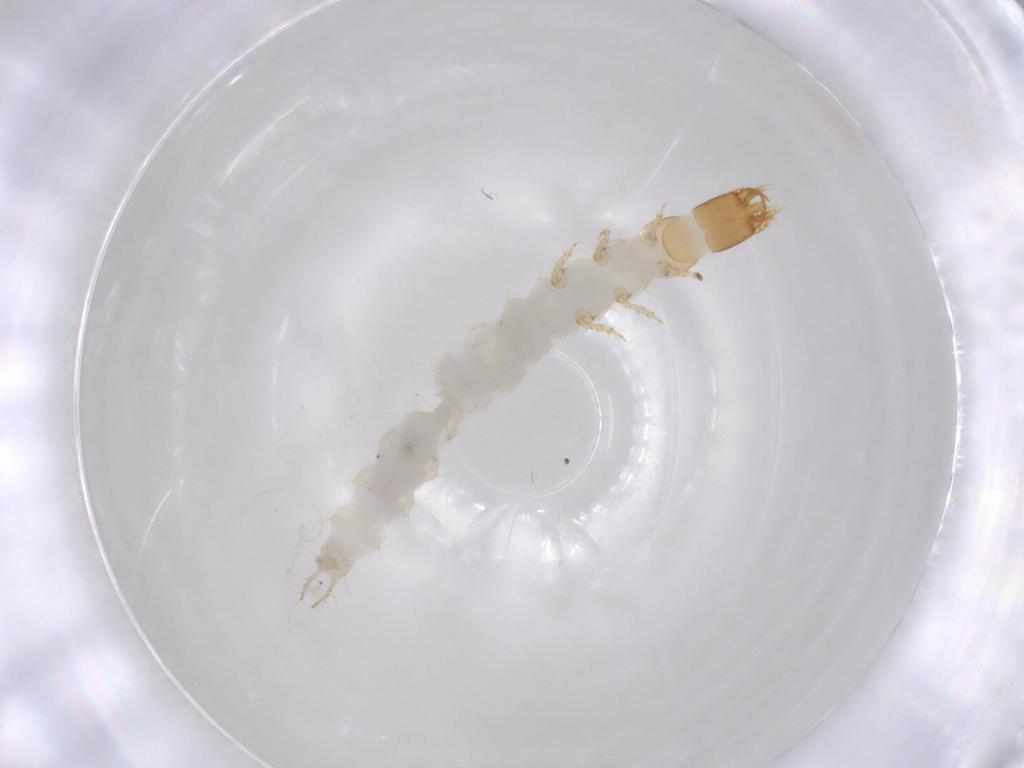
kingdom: Animalia
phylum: Arthropoda
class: Insecta
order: Coleoptera
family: Carabidae
